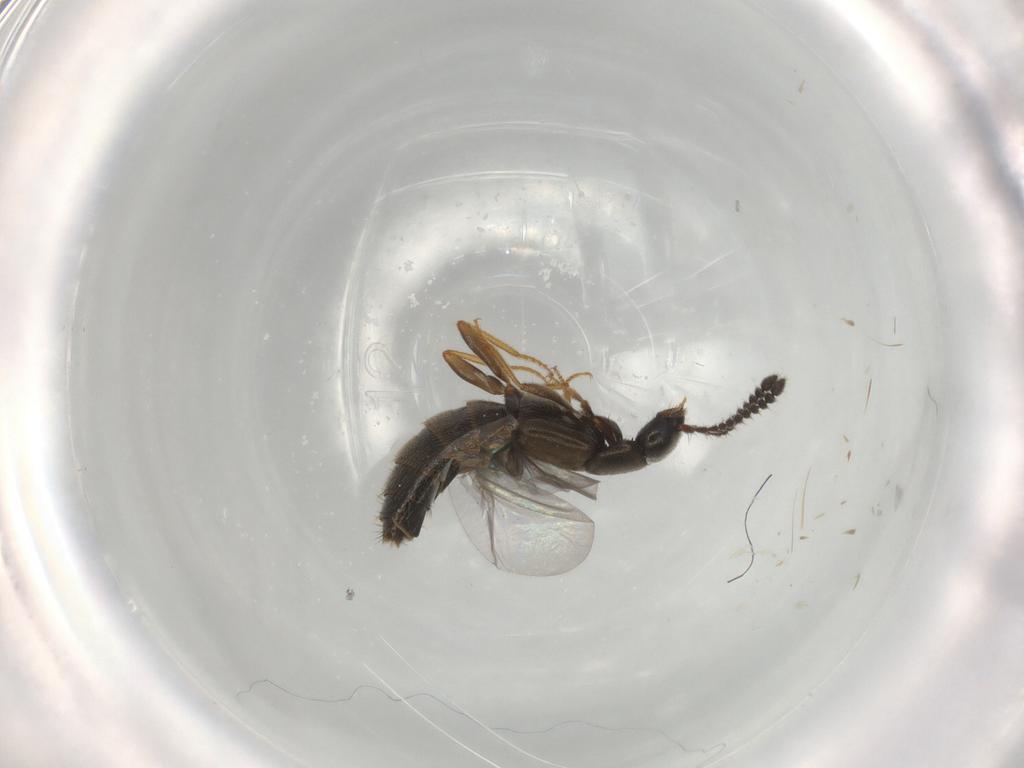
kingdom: Animalia
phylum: Arthropoda
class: Insecta
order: Coleoptera
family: Staphylinidae
